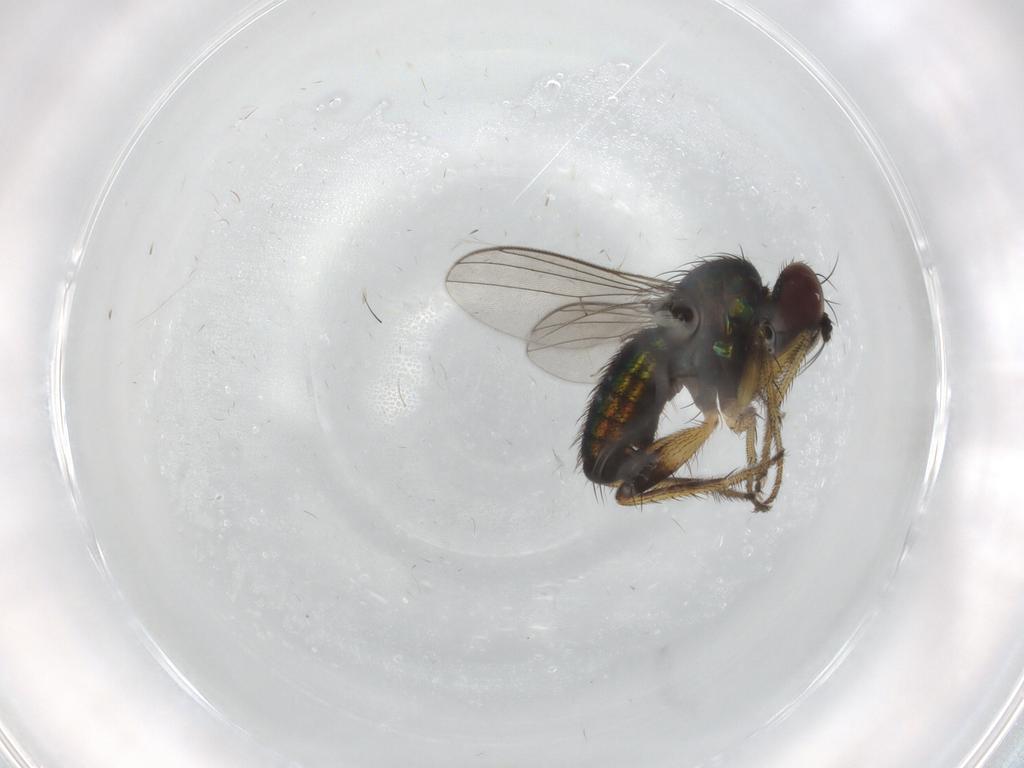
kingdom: Animalia
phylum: Arthropoda
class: Insecta
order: Diptera
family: Dolichopodidae
